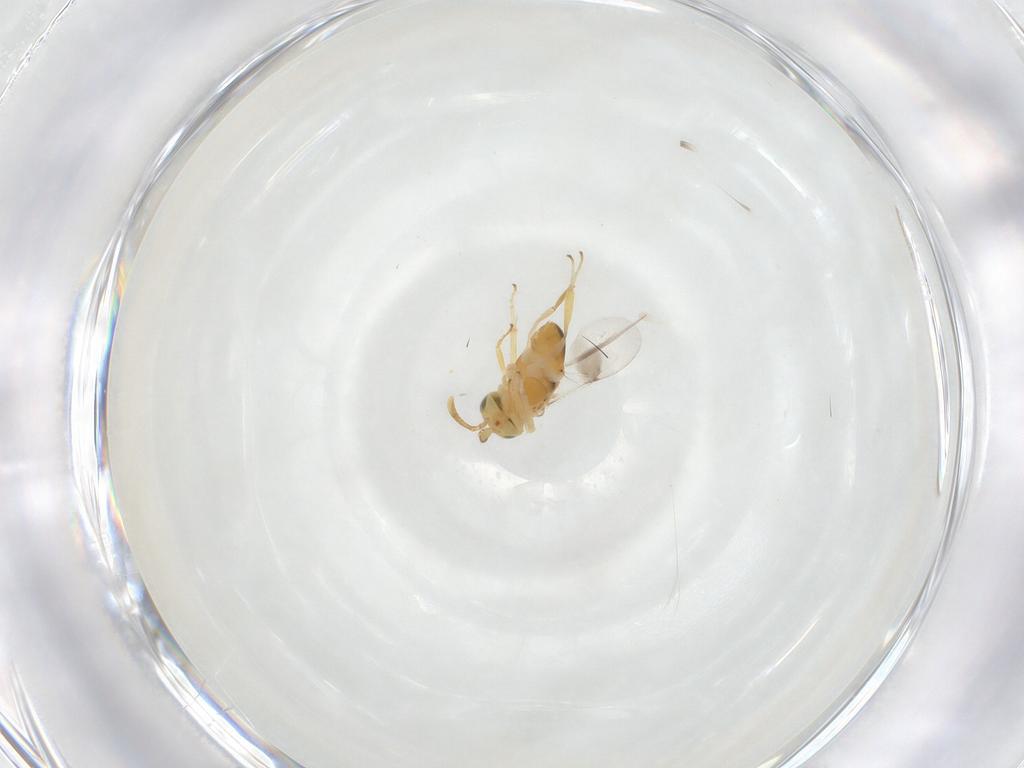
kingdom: Animalia
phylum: Arthropoda
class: Insecta
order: Hymenoptera
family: Encyrtidae
